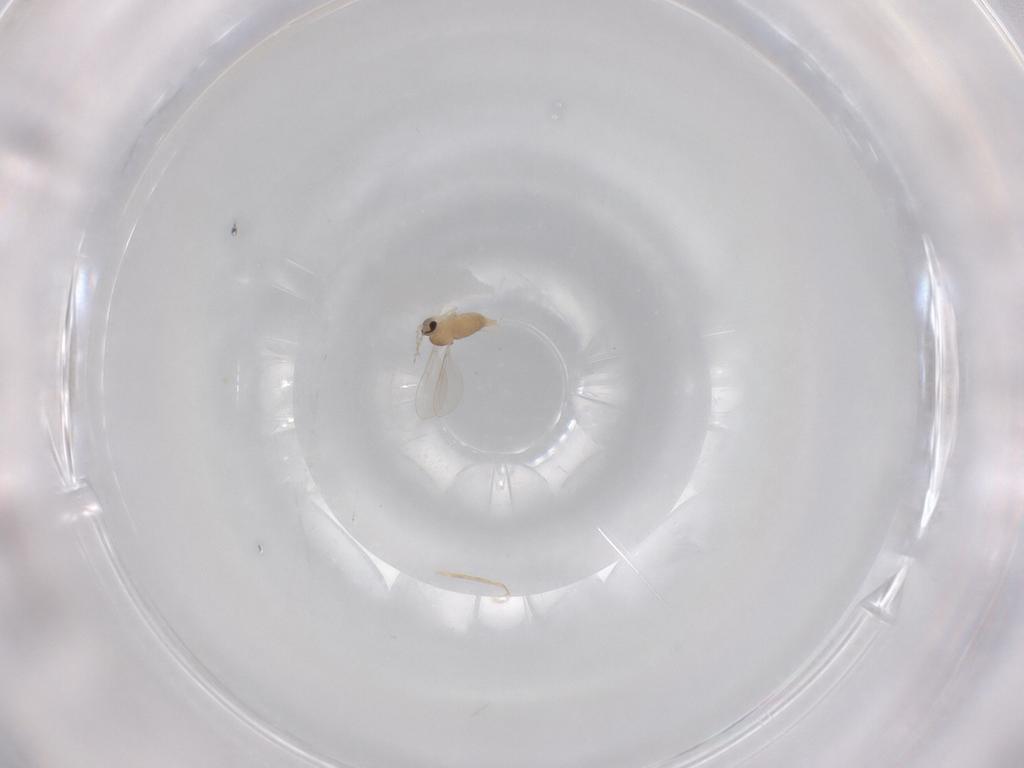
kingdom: Animalia
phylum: Arthropoda
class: Insecta
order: Diptera
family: Cecidomyiidae
